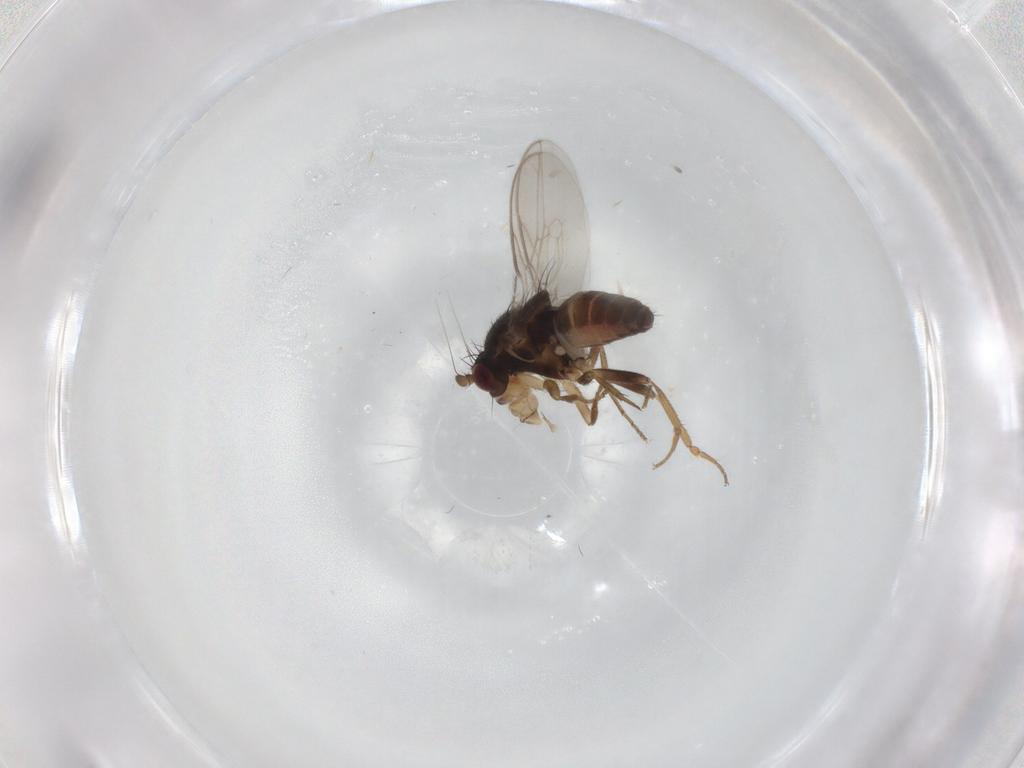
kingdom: Animalia
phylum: Arthropoda
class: Insecta
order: Diptera
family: Sphaeroceridae
